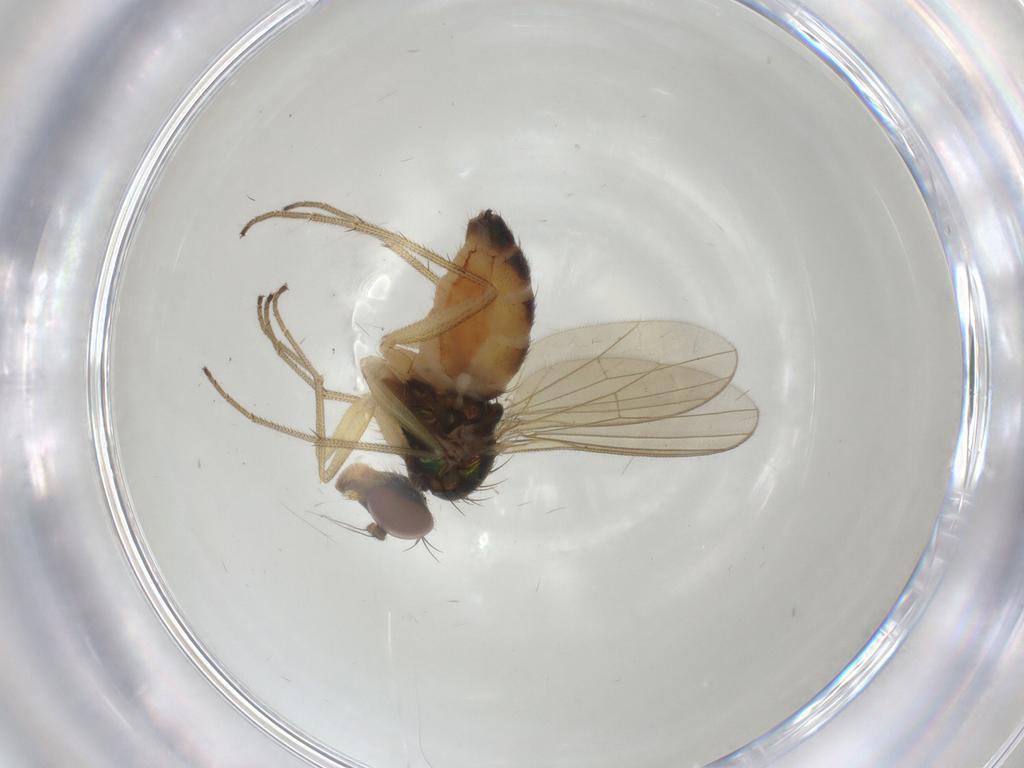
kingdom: Animalia
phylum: Arthropoda
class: Insecta
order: Diptera
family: Dolichopodidae
